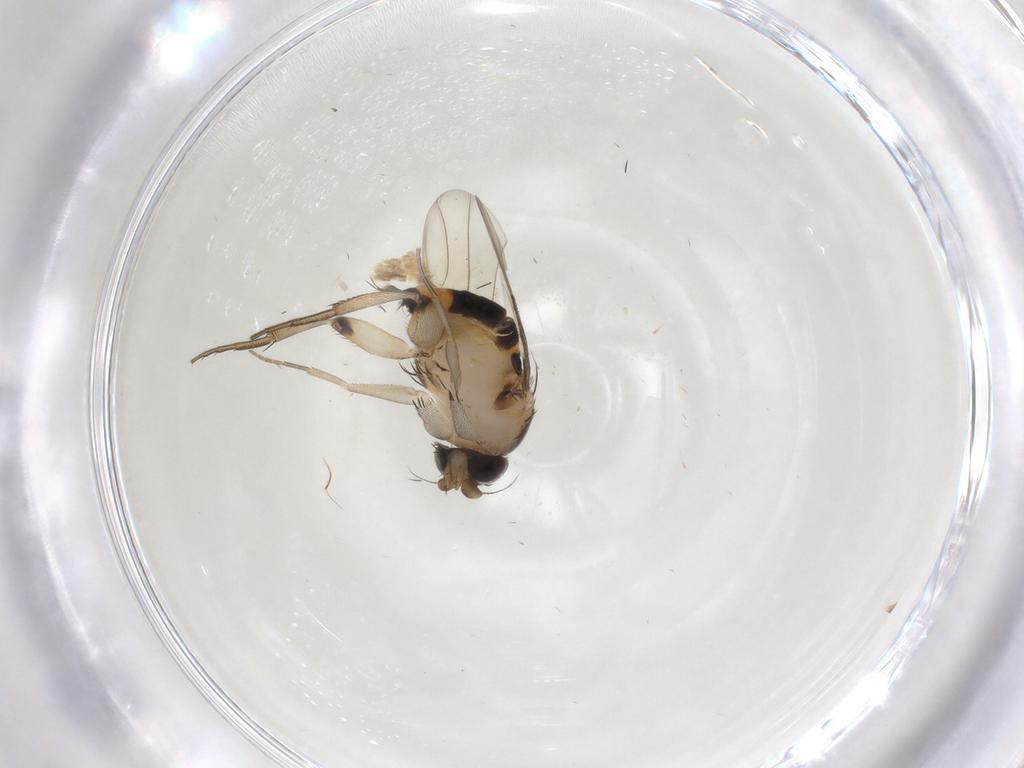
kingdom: Animalia
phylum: Arthropoda
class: Insecta
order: Diptera
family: Phoridae
